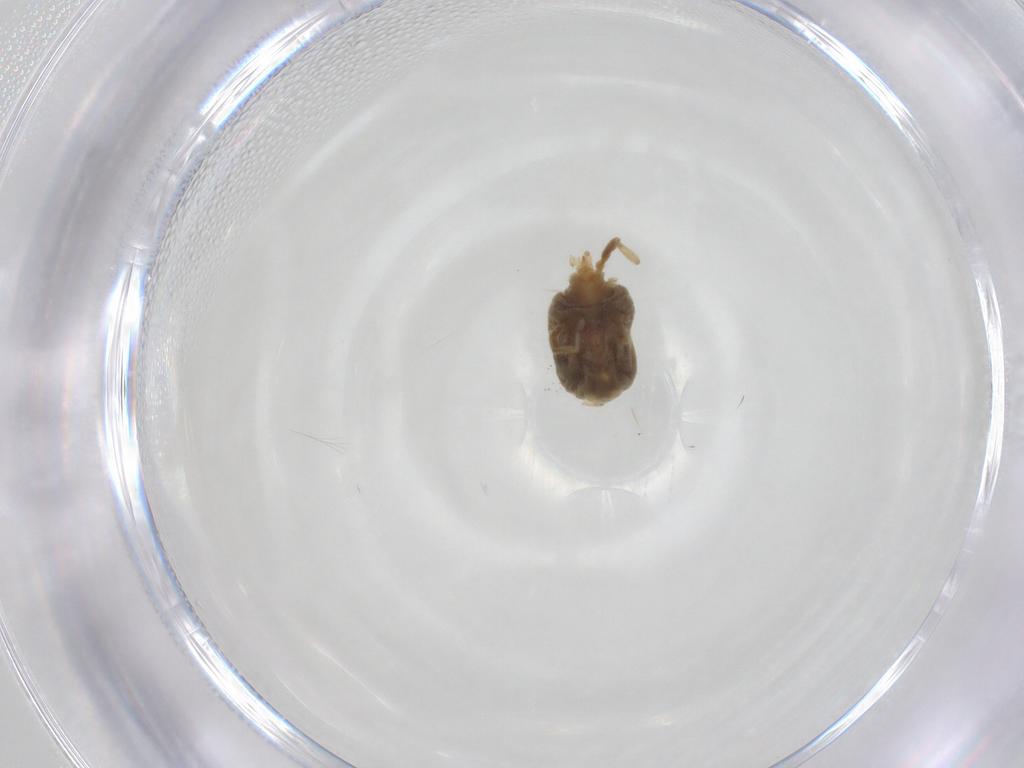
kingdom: Animalia
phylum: Arthropoda
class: Arachnida
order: Trombidiformes
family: Erythraeidae
